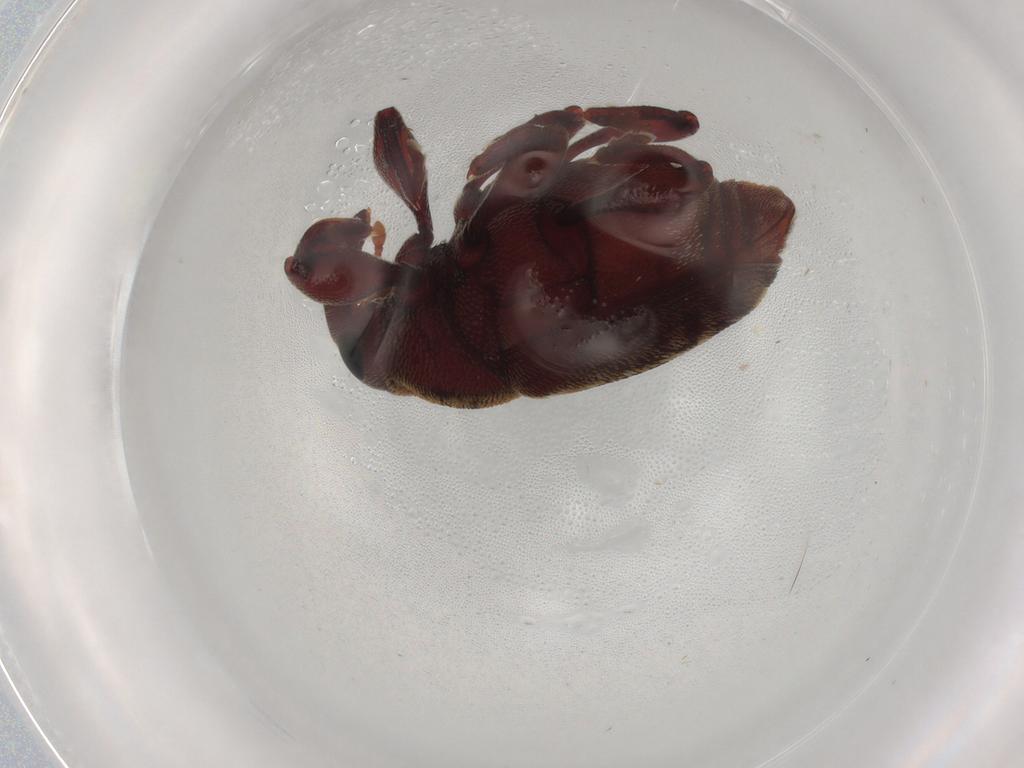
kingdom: Animalia
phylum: Arthropoda
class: Insecta
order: Coleoptera
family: Curculionidae
